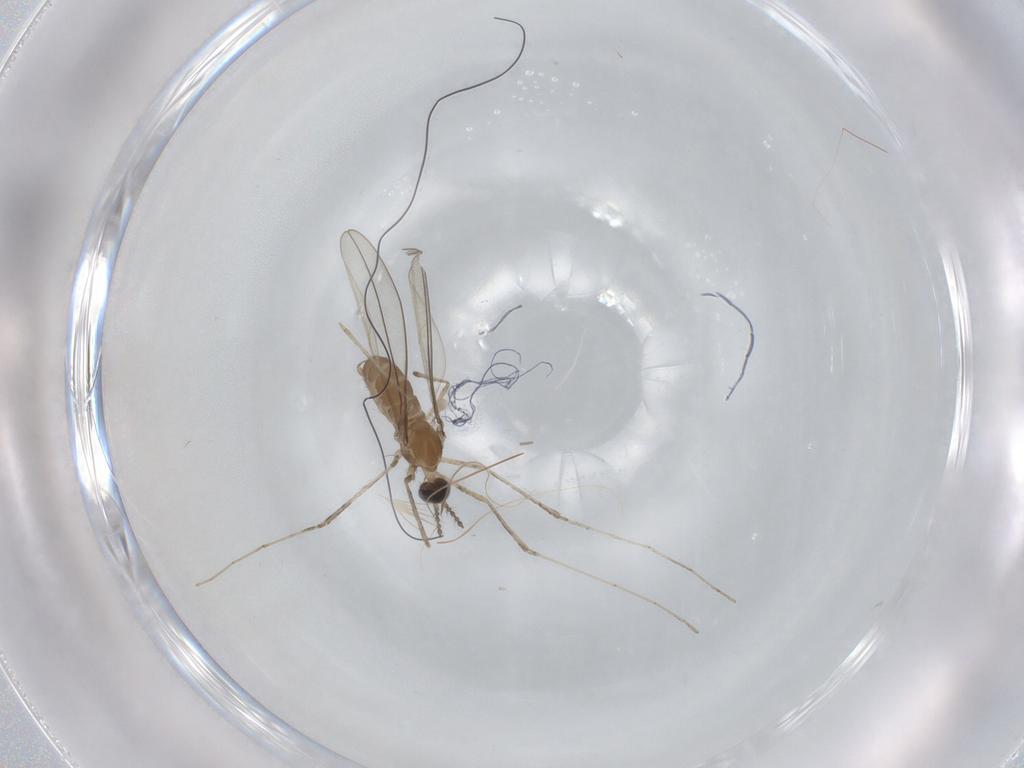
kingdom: Animalia
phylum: Arthropoda
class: Insecta
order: Diptera
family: Cecidomyiidae
